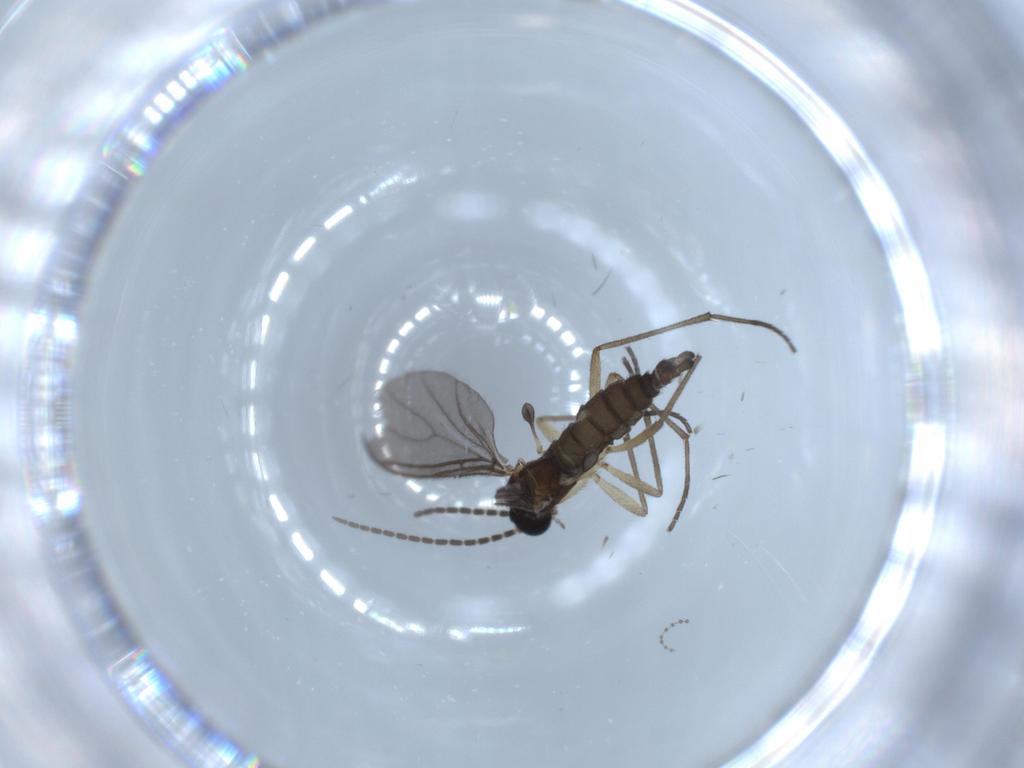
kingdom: Animalia
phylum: Arthropoda
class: Insecta
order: Diptera
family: Sciaridae
